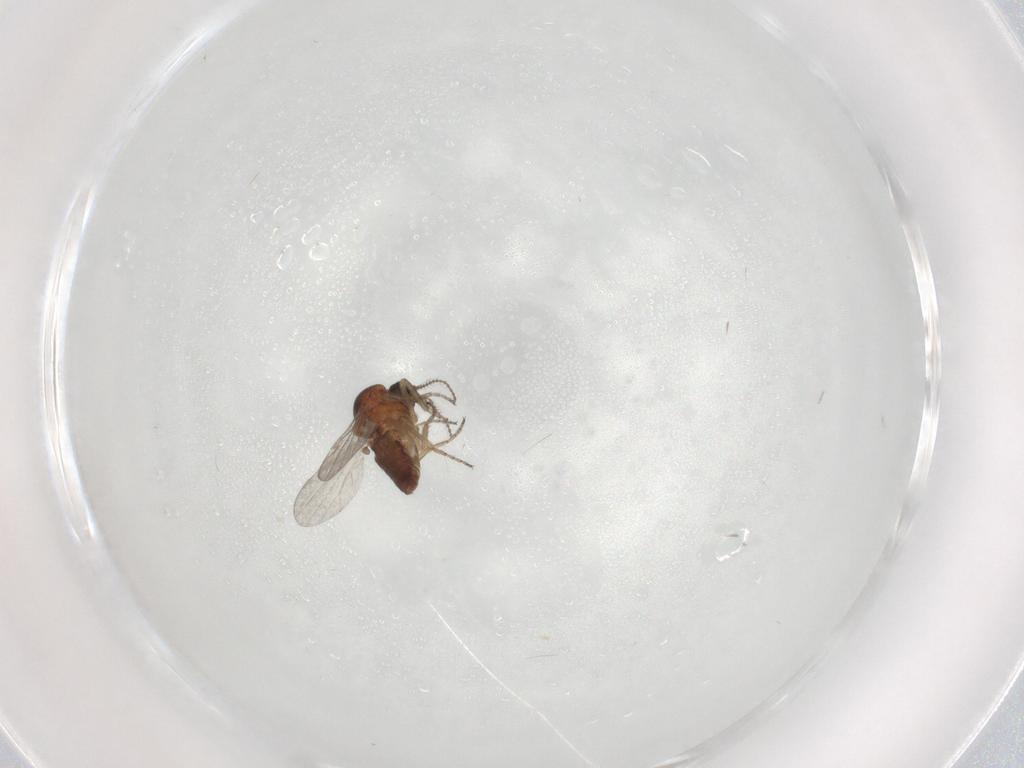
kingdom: Animalia
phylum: Arthropoda
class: Insecta
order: Diptera
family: Ceratopogonidae
